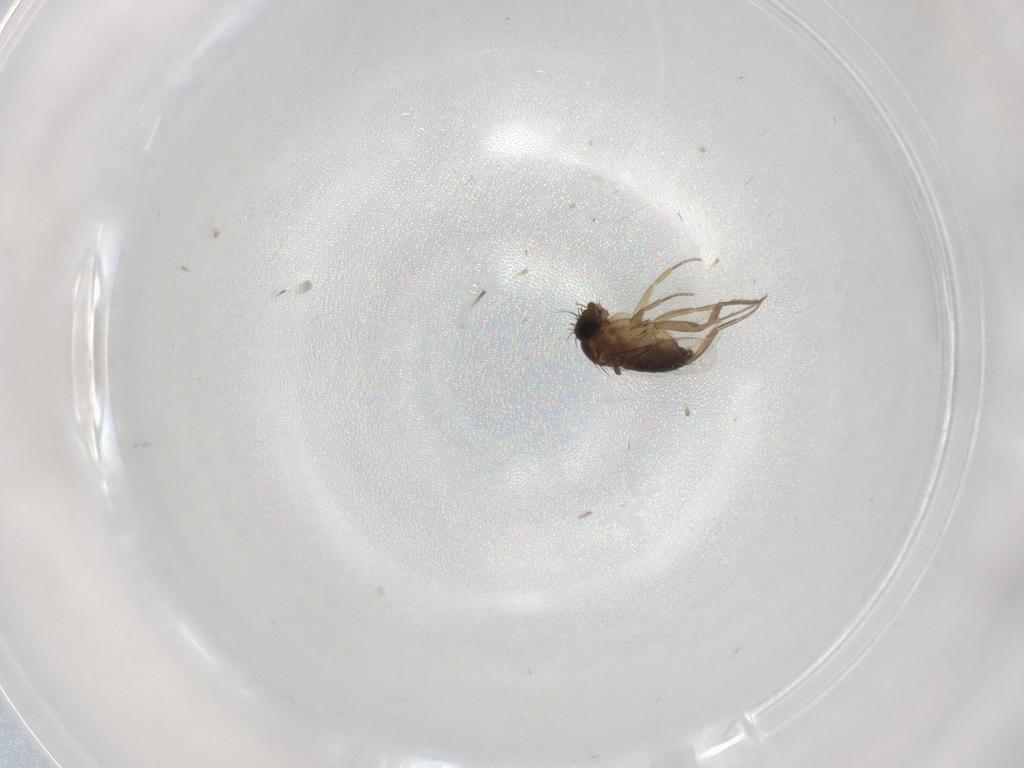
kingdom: Animalia
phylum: Arthropoda
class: Insecta
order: Diptera
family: Phoridae
